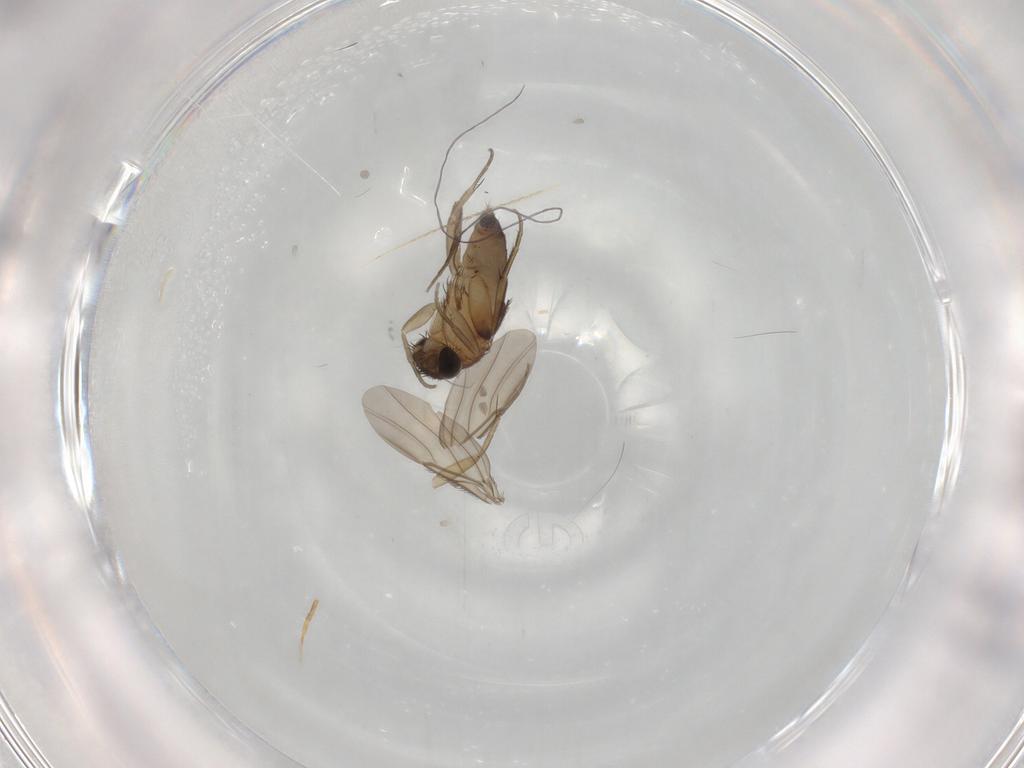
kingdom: Animalia
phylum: Arthropoda
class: Insecta
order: Diptera
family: Phoridae
